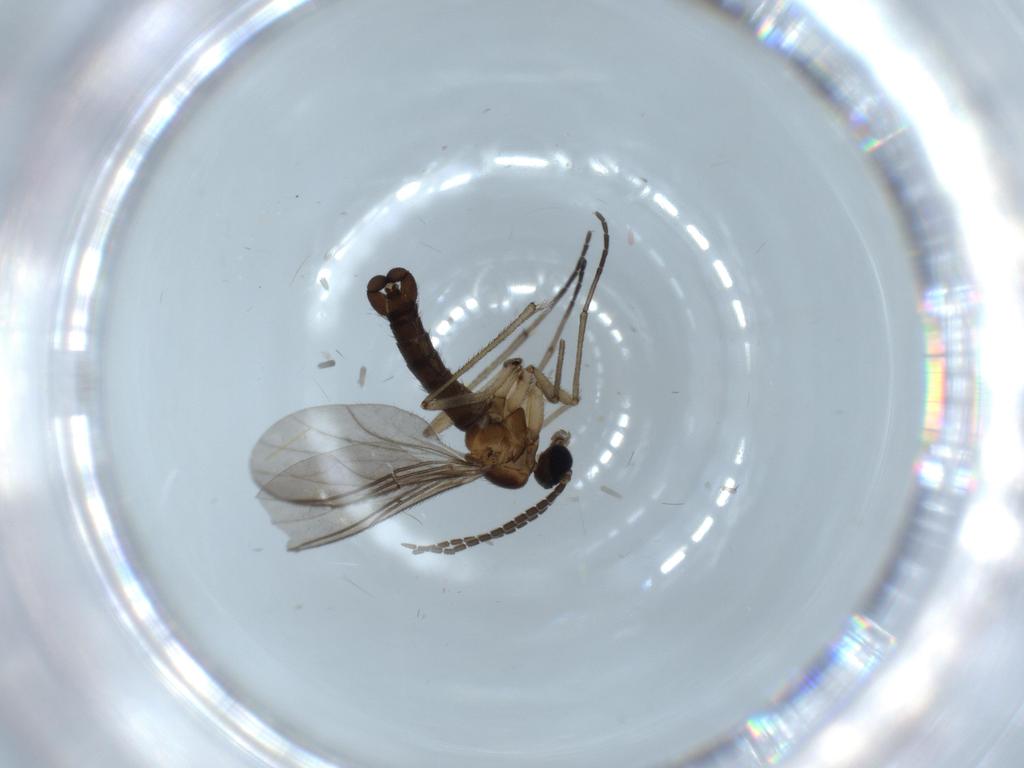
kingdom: Animalia
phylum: Arthropoda
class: Insecta
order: Diptera
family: Sciaridae
